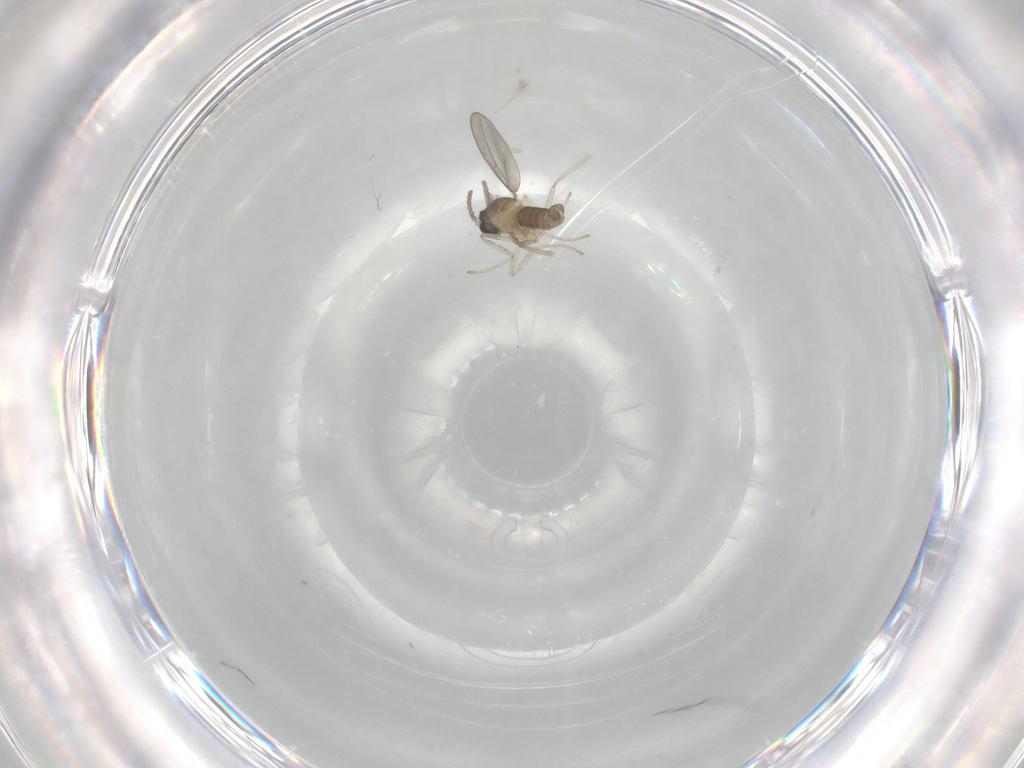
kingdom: Animalia
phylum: Arthropoda
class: Insecta
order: Diptera
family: Cecidomyiidae
